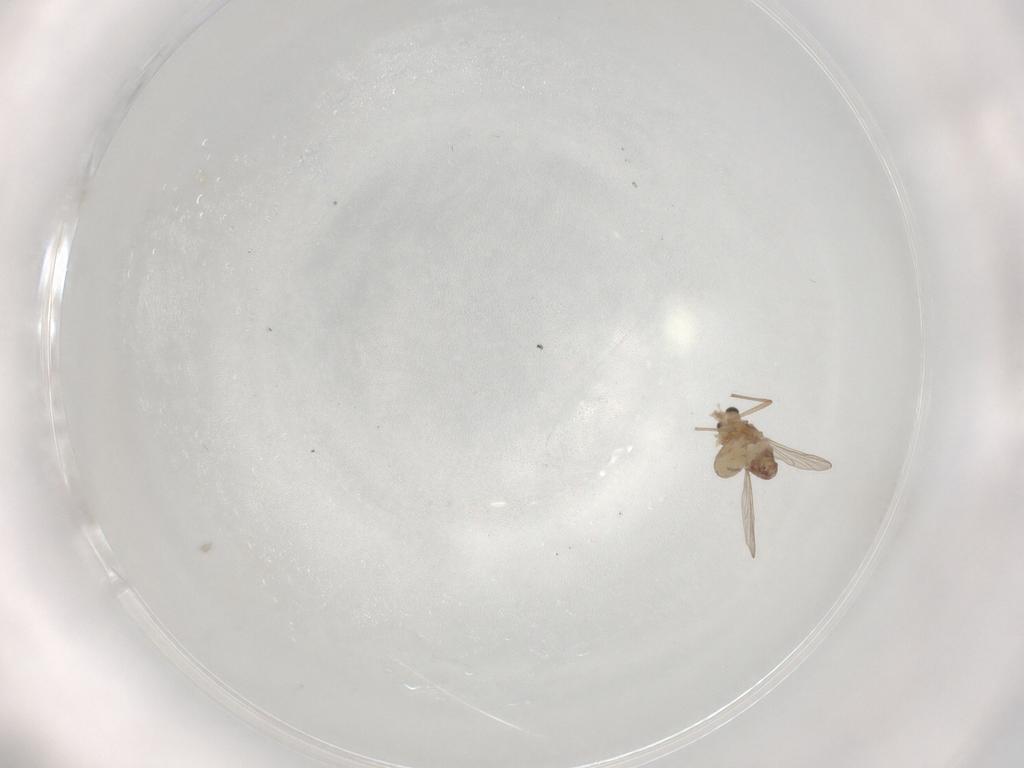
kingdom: Animalia
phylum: Arthropoda
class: Insecta
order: Diptera
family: Chironomidae
